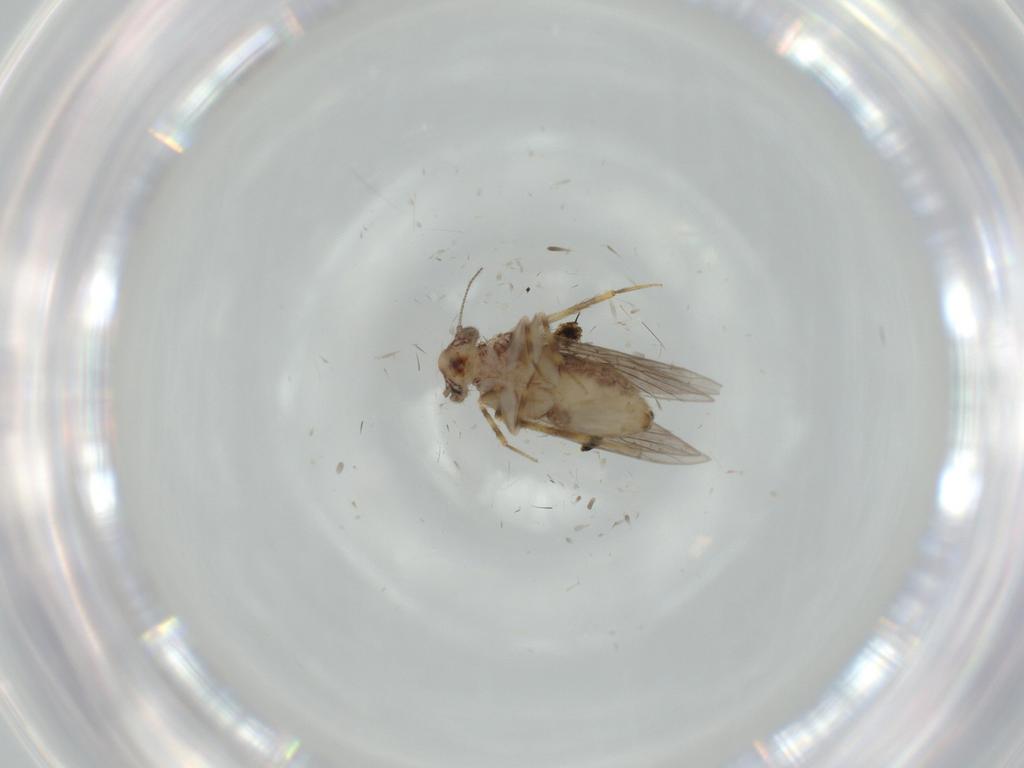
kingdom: Animalia
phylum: Arthropoda
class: Insecta
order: Psocodea
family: Lepidopsocidae
